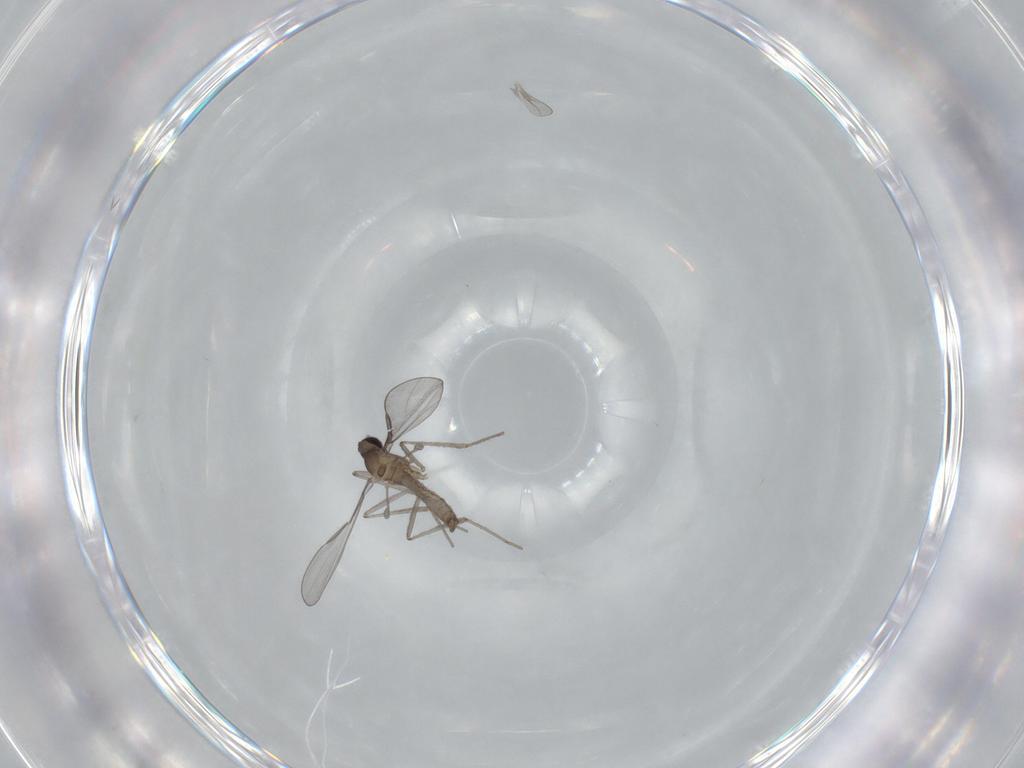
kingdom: Animalia
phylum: Arthropoda
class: Insecta
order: Diptera
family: Cecidomyiidae
